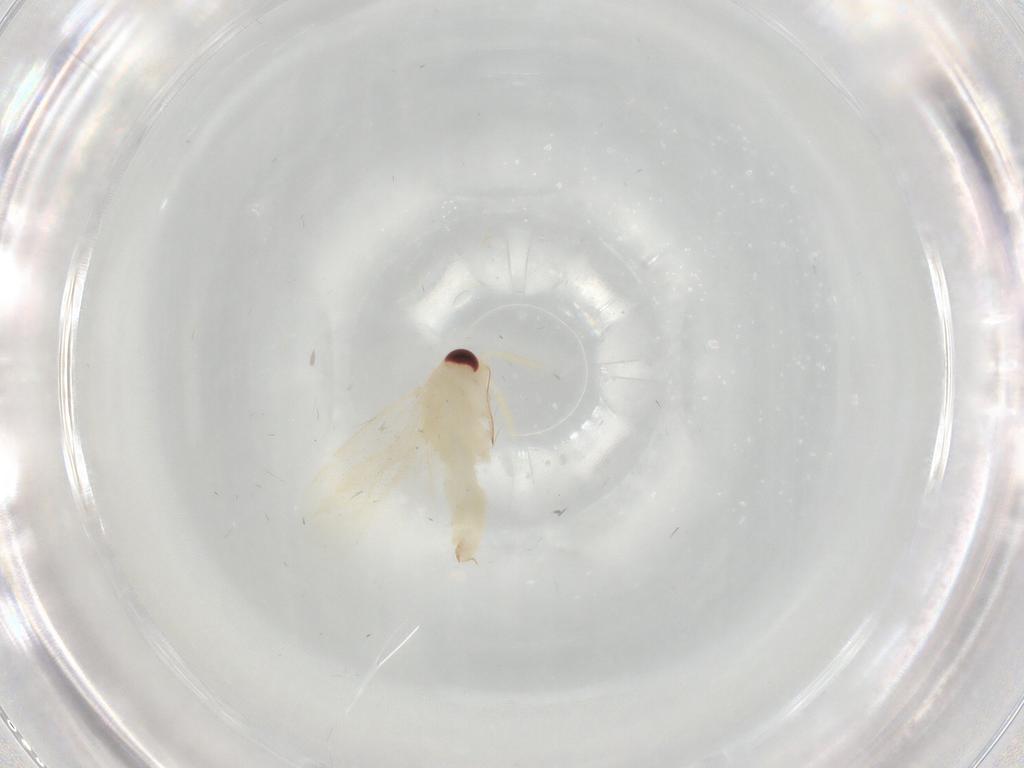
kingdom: Animalia
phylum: Arthropoda
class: Insecta
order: Hemiptera
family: Miridae
